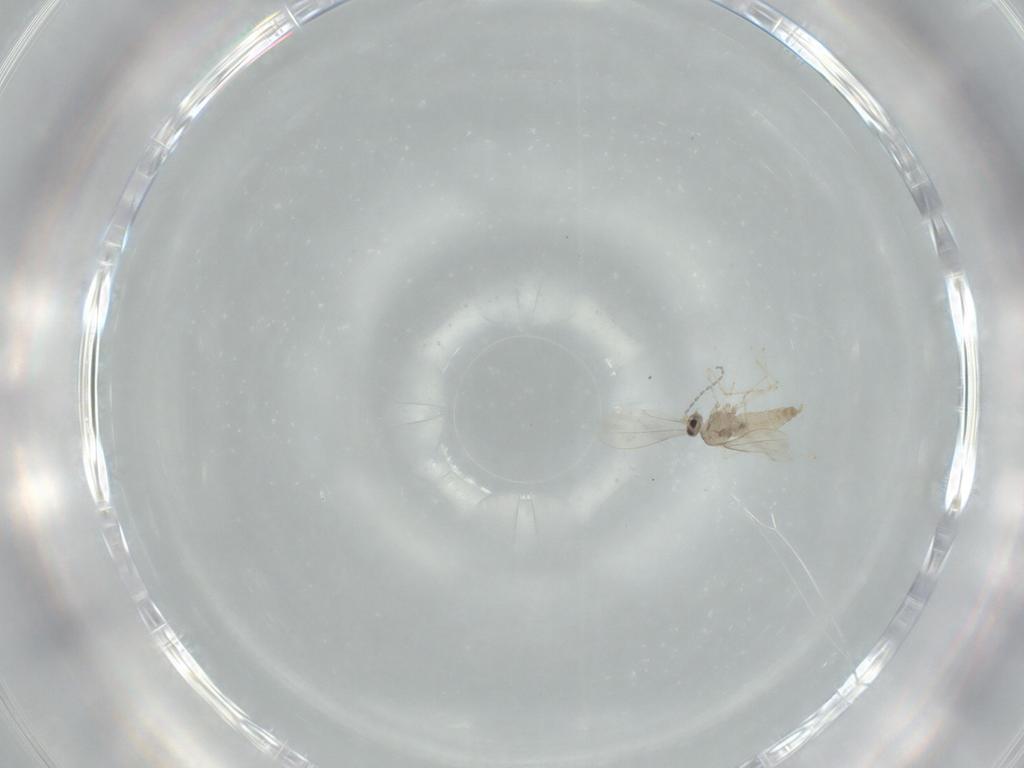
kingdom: Animalia
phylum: Arthropoda
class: Insecta
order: Diptera
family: Cecidomyiidae
